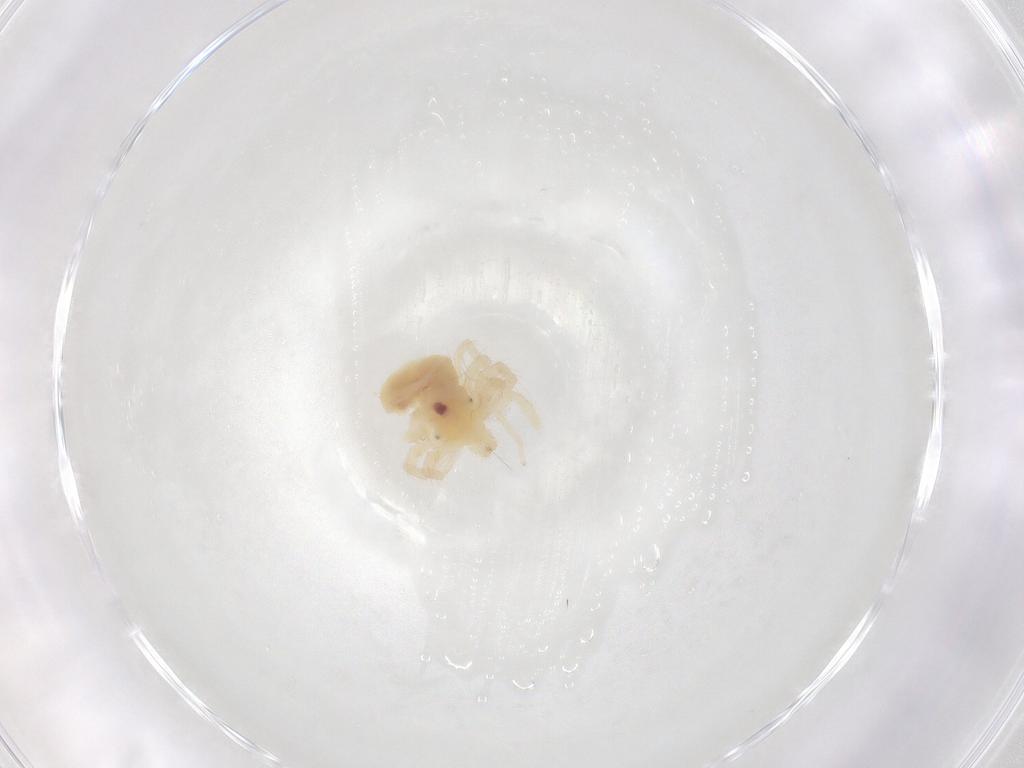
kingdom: Animalia
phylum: Arthropoda
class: Arachnida
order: Trombidiformes
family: Anystidae
